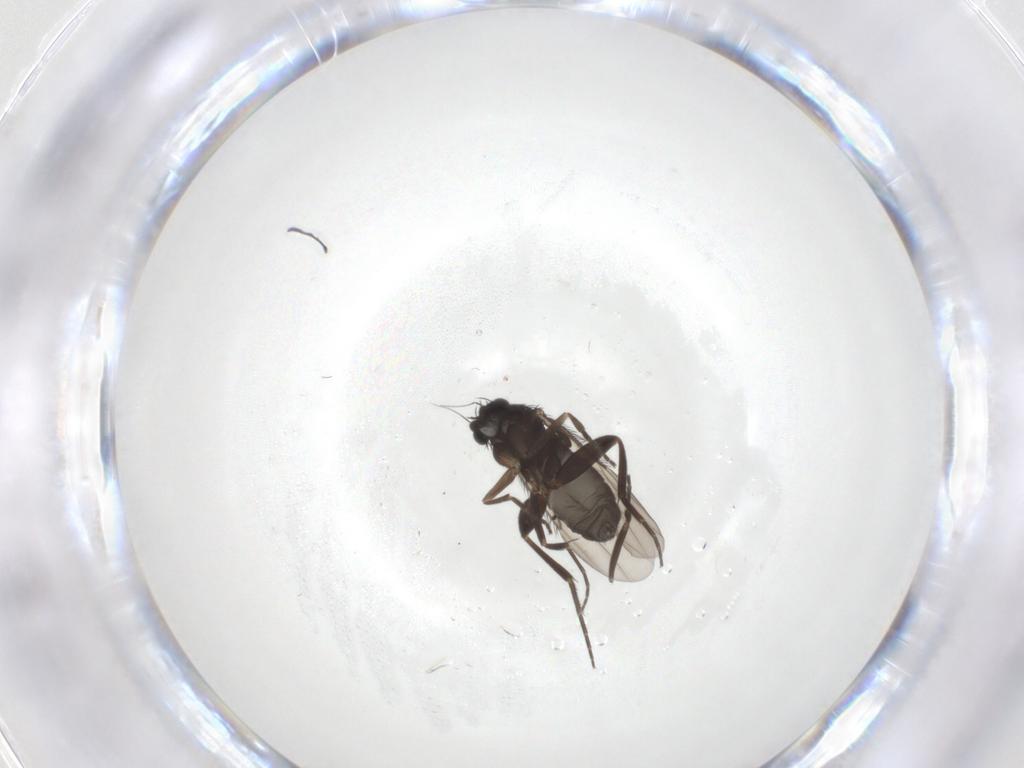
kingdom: Animalia
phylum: Arthropoda
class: Insecta
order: Diptera
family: Phoridae
